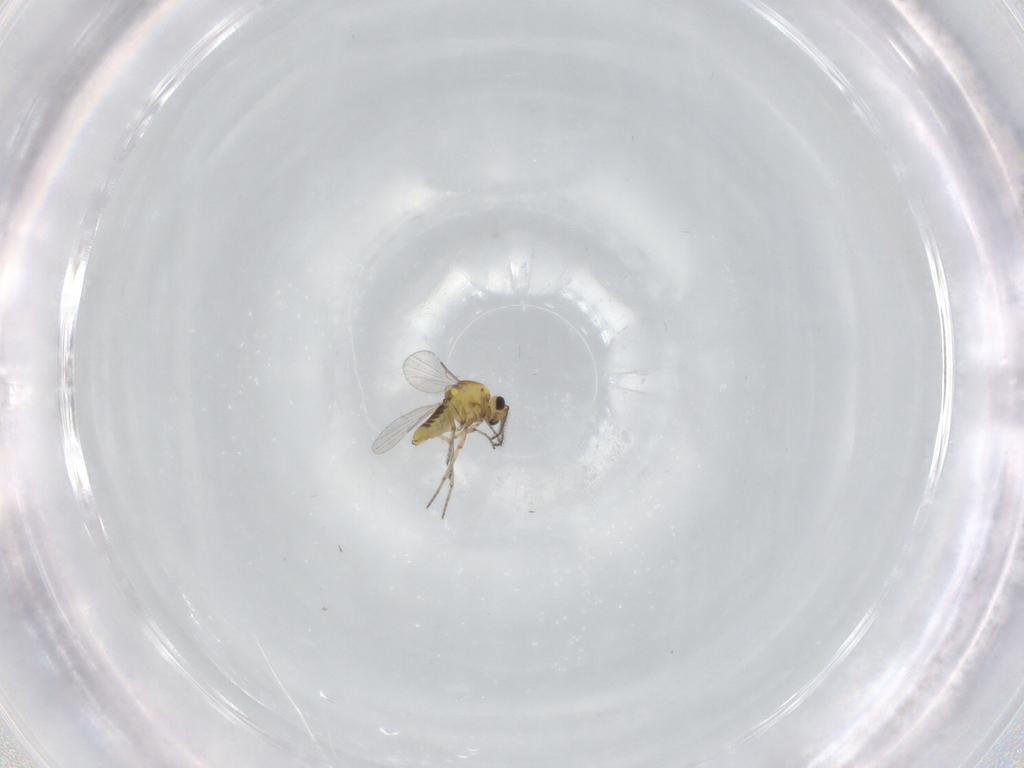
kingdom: Animalia
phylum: Arthropoda
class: Insecta
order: Diptera
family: Ceratopogonidae
